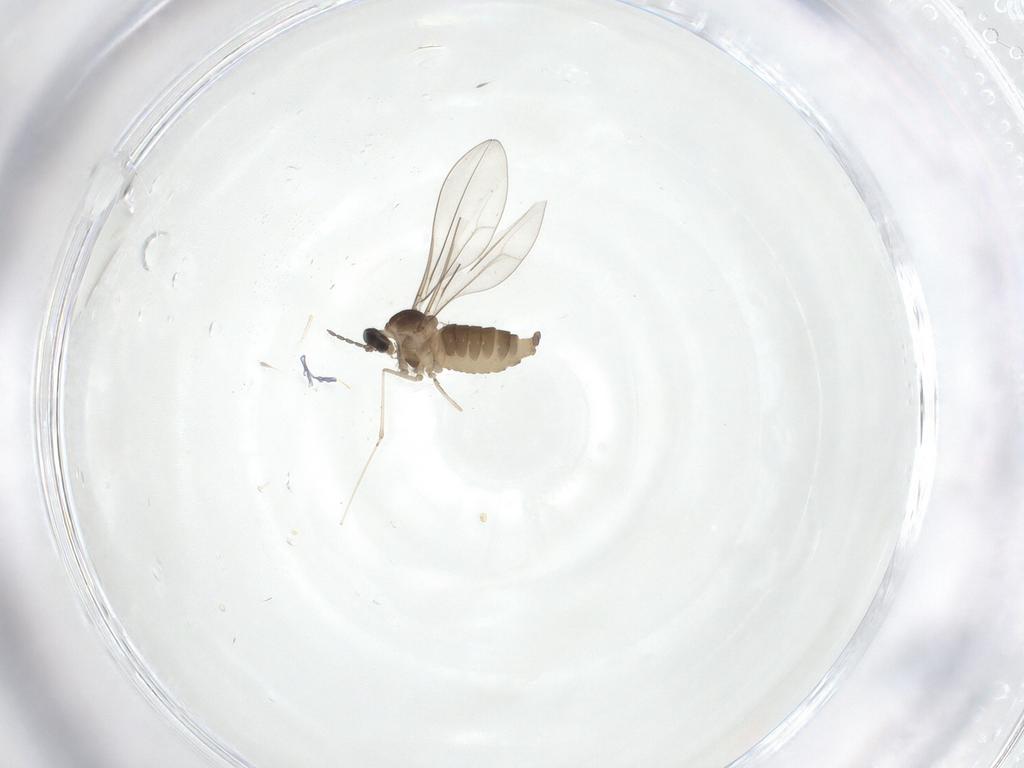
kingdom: Animalia
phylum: Arthropoda
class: Insecta
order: Diptera
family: Cecidomyiidae
